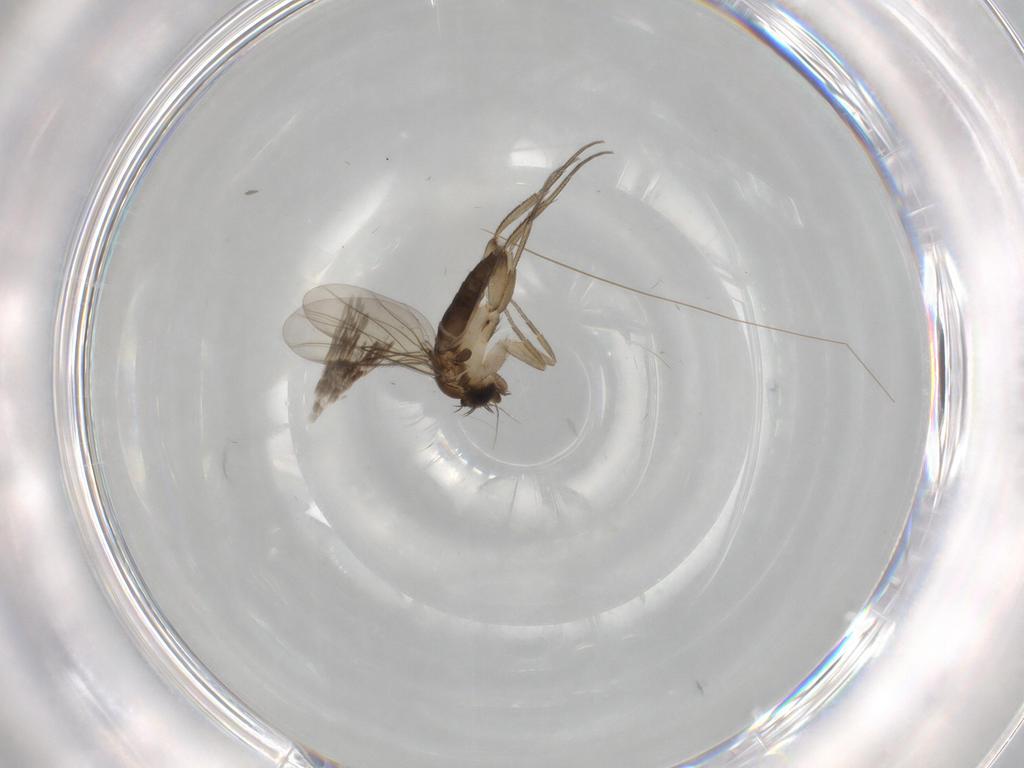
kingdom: Animalia
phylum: Arthropoda
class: Insecta
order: Diptera
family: Phoridae
